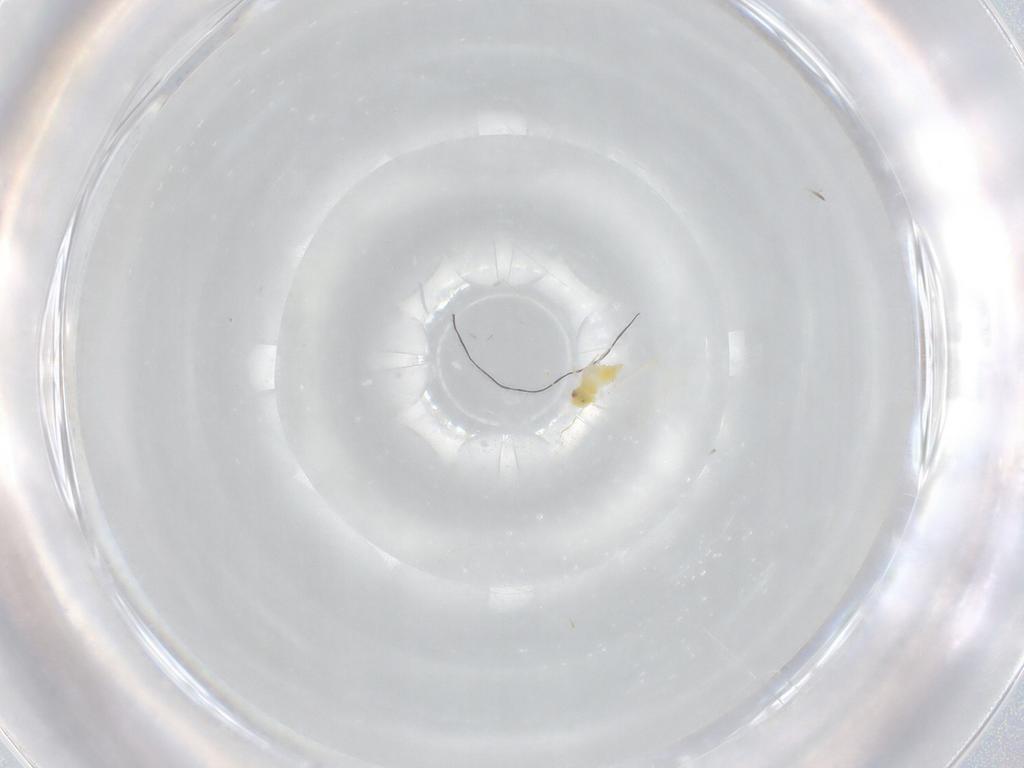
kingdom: Animalia
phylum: Arthropoda
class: Insecta
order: Hemiptera
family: Aleyrodidae
